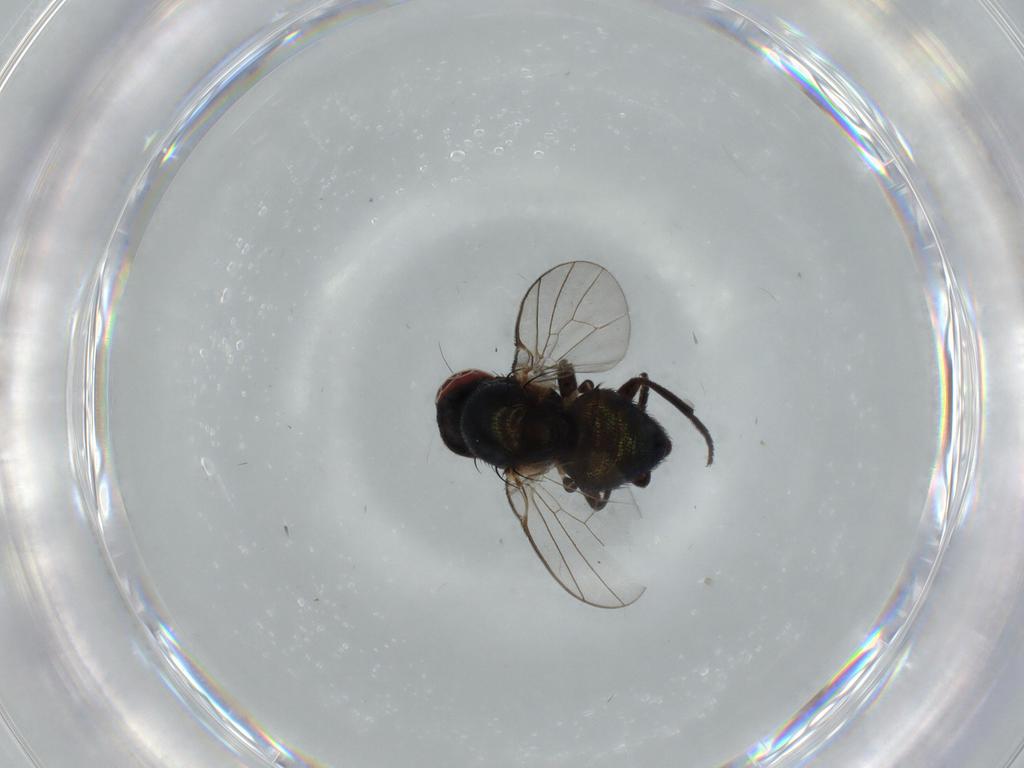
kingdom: Animalia
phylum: Arthropoda
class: Insecta
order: Diptera
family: Agromyzidae
